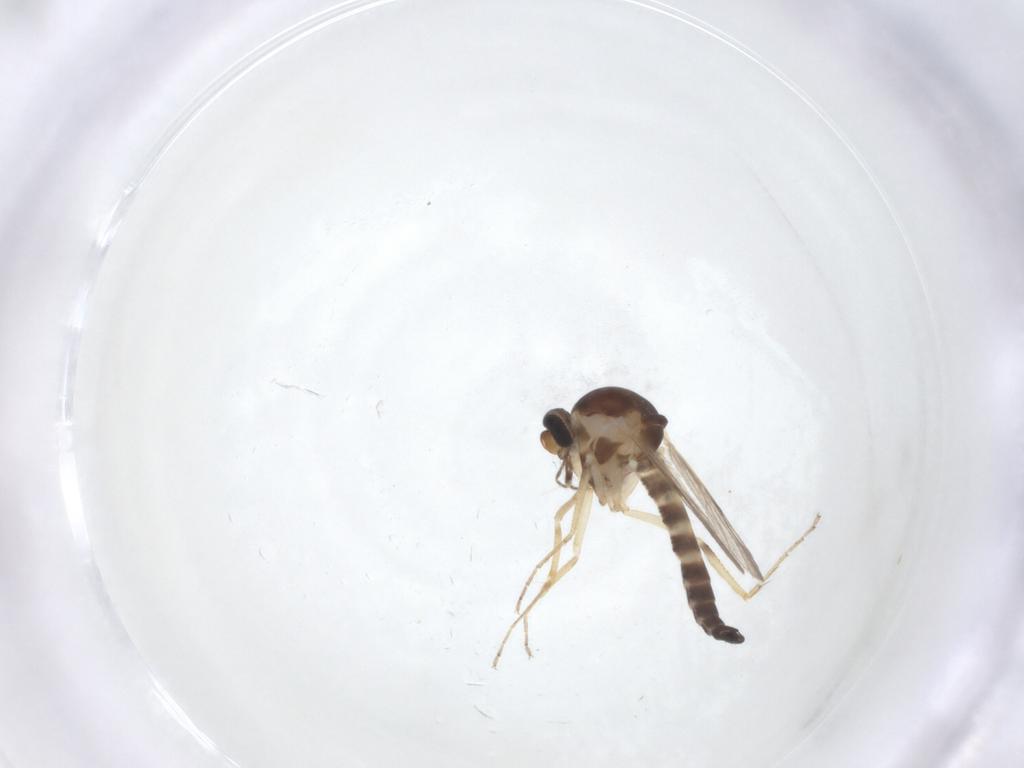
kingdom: Animalia
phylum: Arthropoda
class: Insecta
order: Diptera
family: Ceratopogonidae
